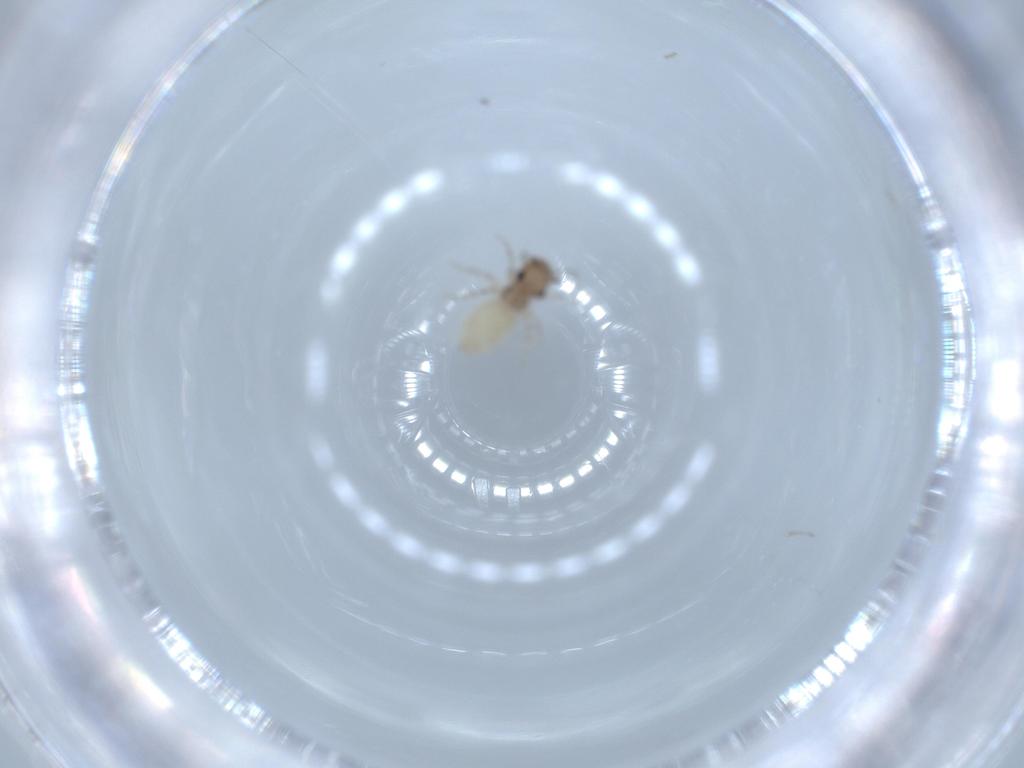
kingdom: Animalia
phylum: Arthropoda
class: Insecta
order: Psocodea
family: Lepidopsocidae
